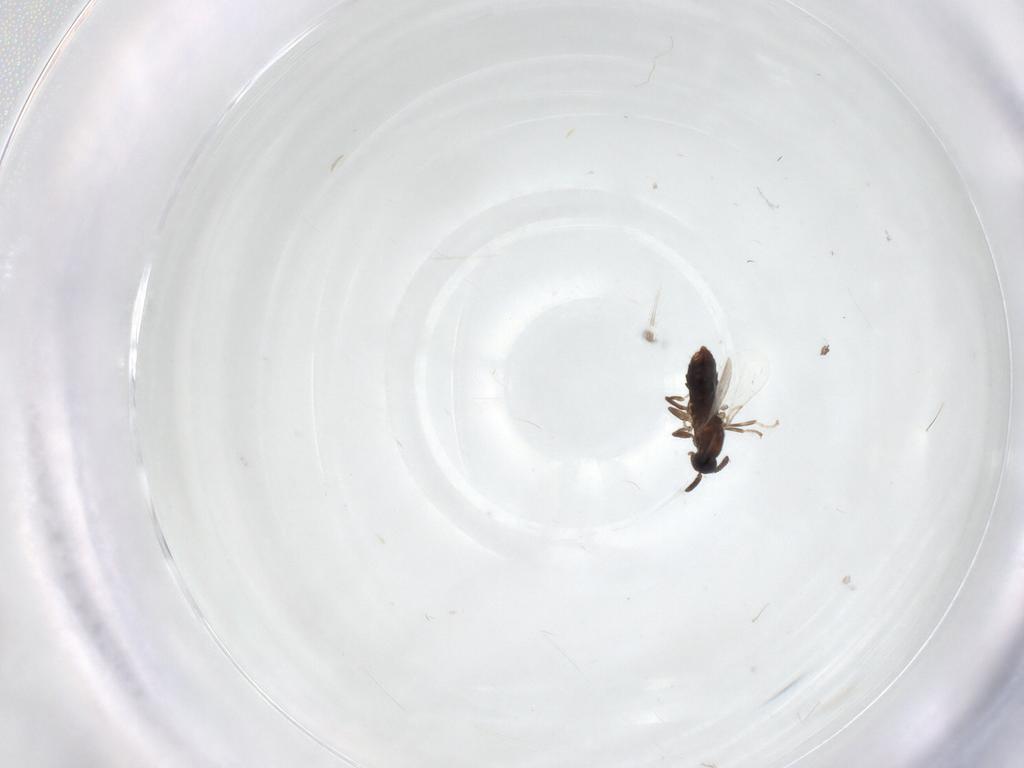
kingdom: Animalia
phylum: Arthropoda
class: Insecta
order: Diptera
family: Scatopsidae
